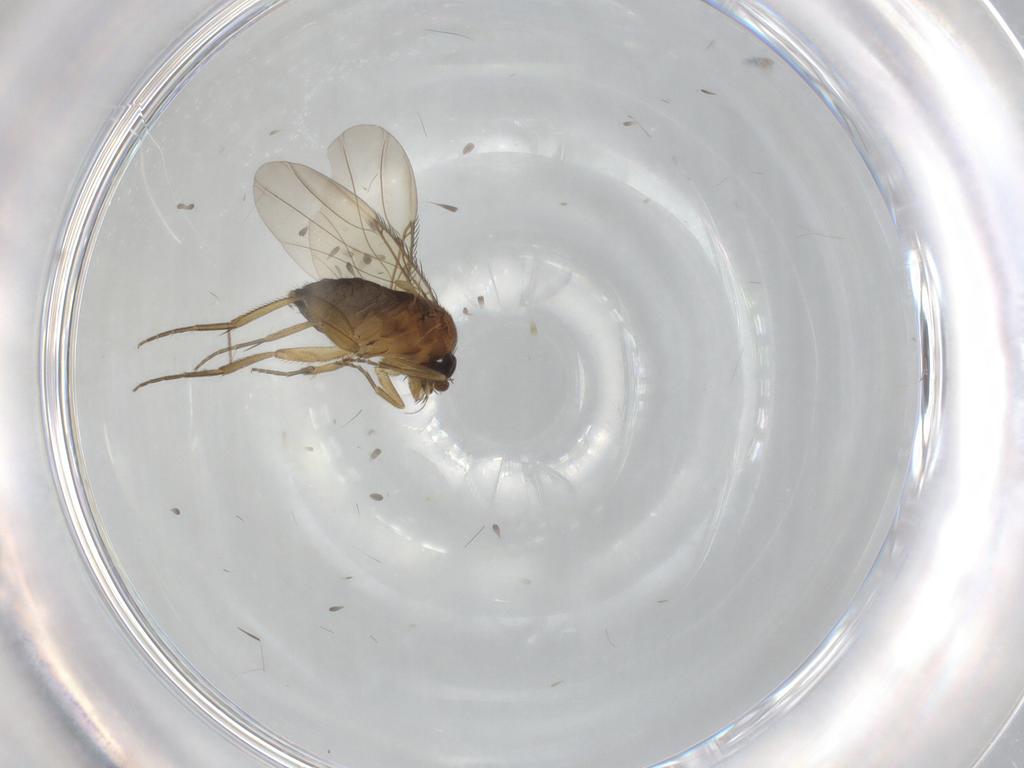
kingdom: Animalia
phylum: Arthropoda
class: Insecta
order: Diptera
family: Phoridae
